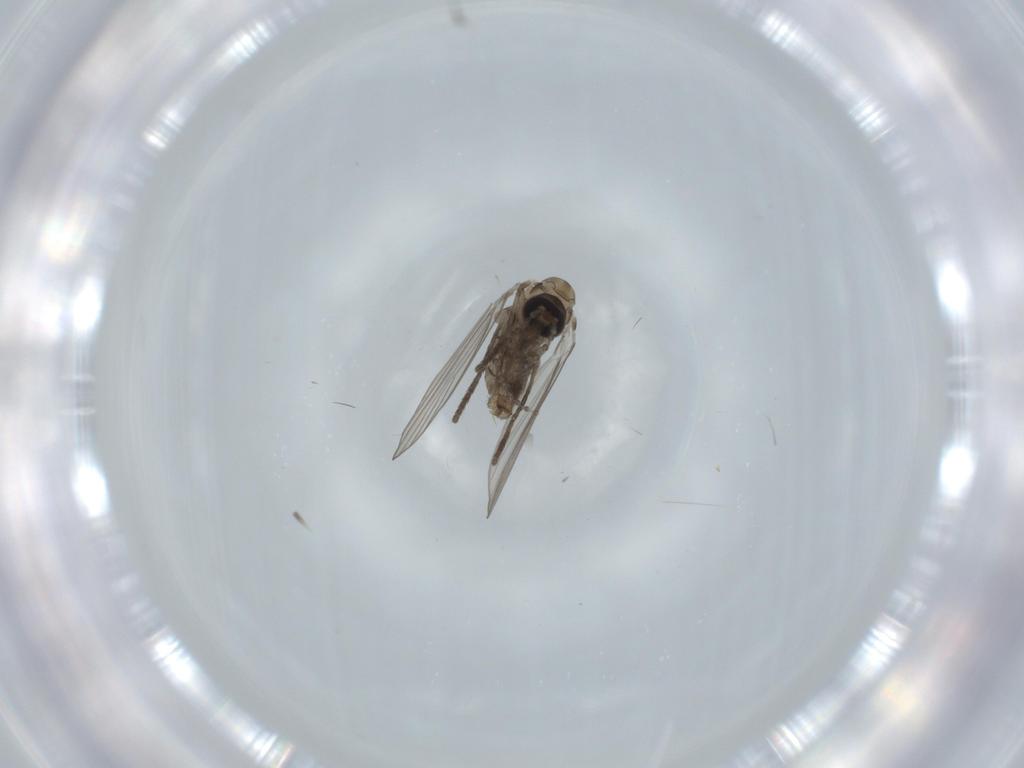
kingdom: Animalia
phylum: Arthropoda
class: Insecta
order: Diptera
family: Psychodidae
